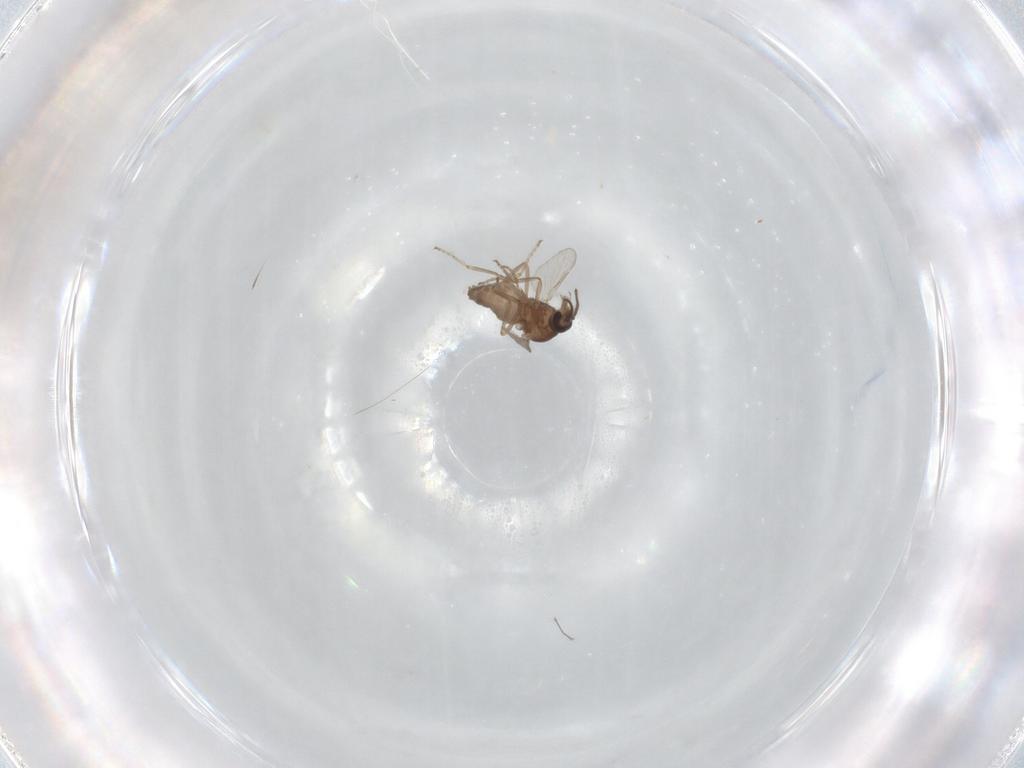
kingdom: Animalia
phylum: Arthropoda
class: Insecta
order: Diptera
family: Ceratopogonidae
